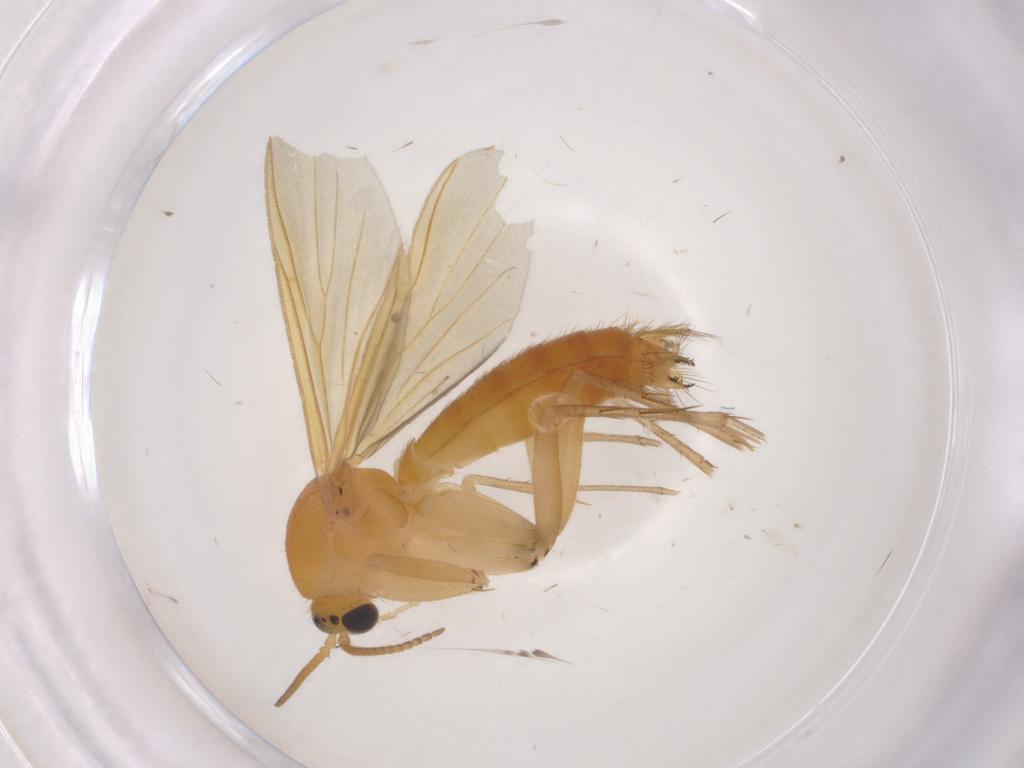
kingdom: Animalia
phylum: Arthropoda
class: Insecta
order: Diptera
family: Mycetophilidae
